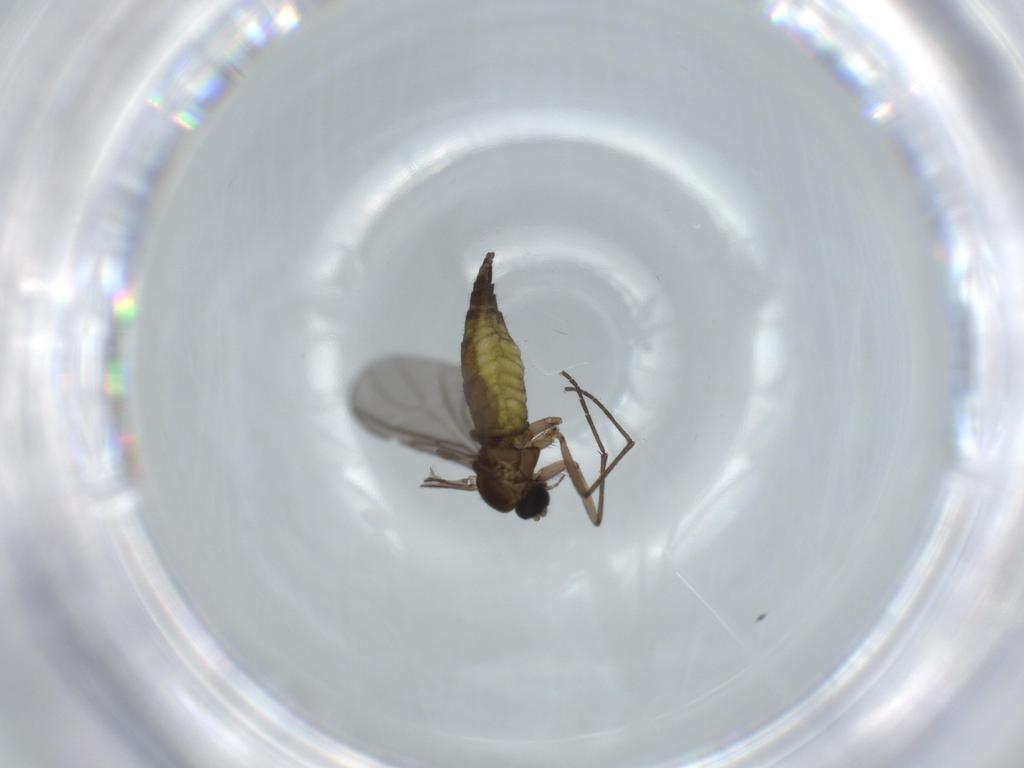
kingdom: Animalia
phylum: Arthropoda
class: Insecta
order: Diptera
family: Sciaridae
